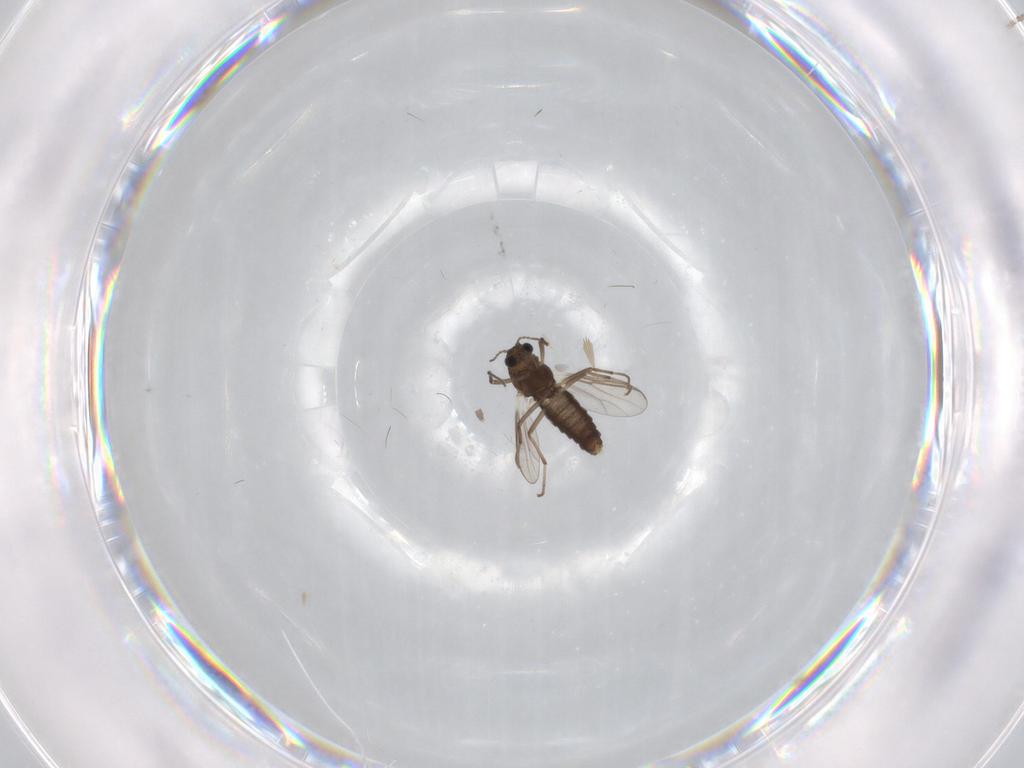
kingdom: Animalia
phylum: Arthropoda
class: Insecta
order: Diptera
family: Chironomidae
